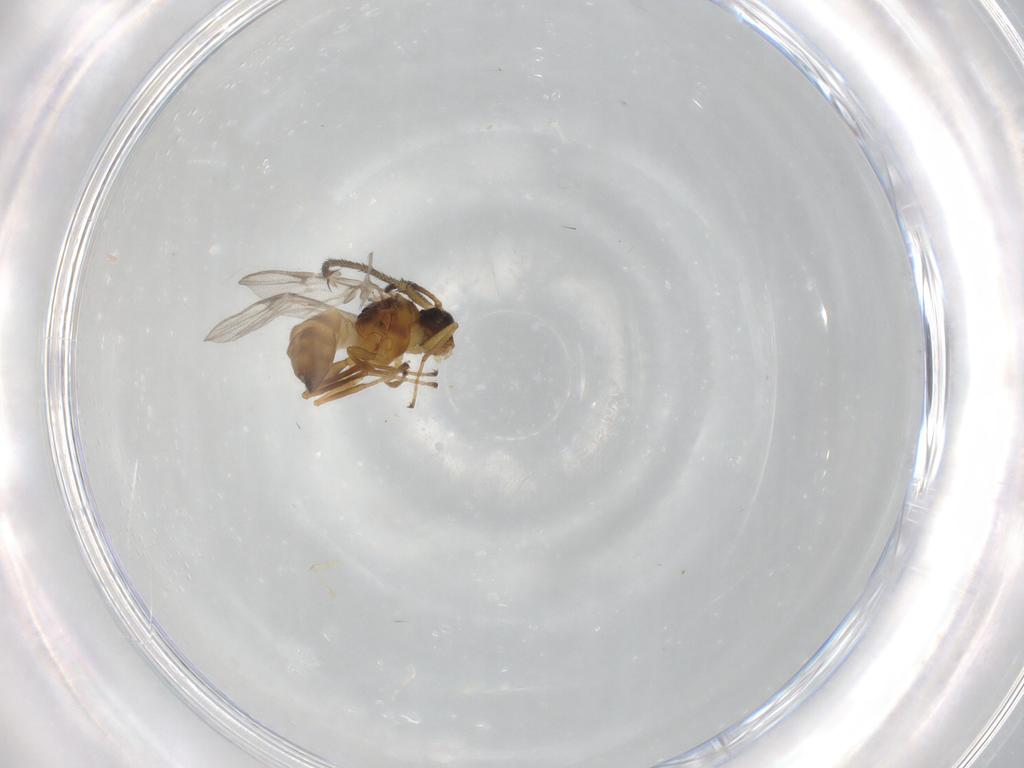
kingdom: Animalia
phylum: Arthropoda
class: Insecta
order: Hymenoptera
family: Braconidae
